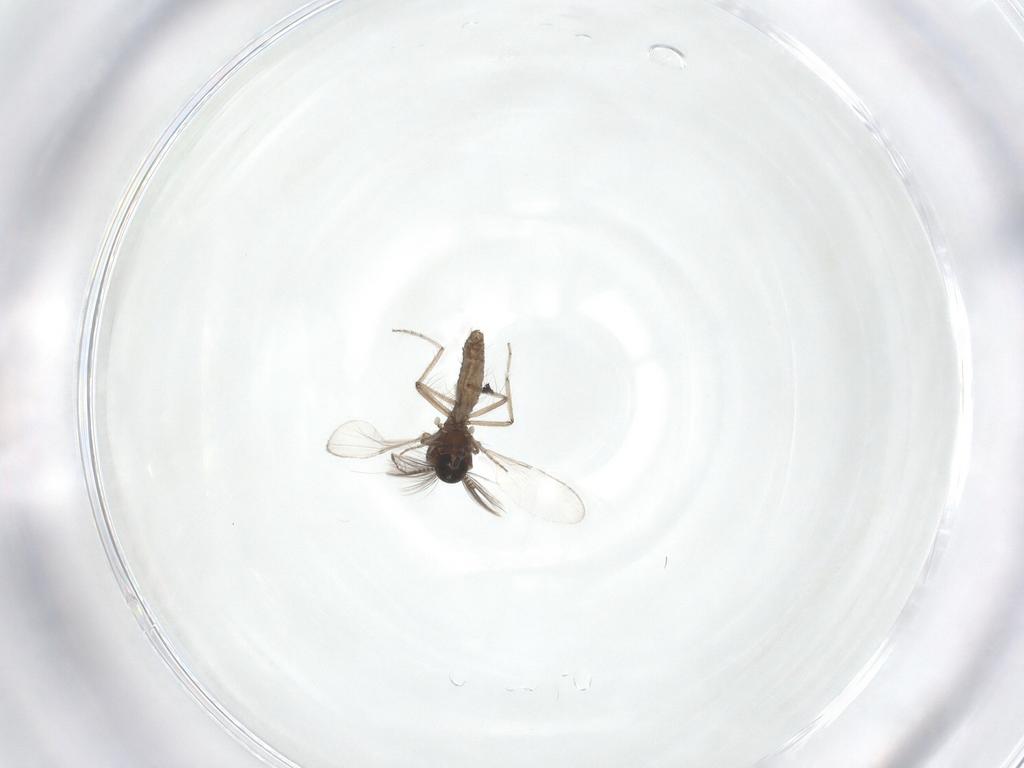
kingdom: Animalia
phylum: Arthropoda
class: Insecta
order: Diptera
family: Ceratopogonidae
